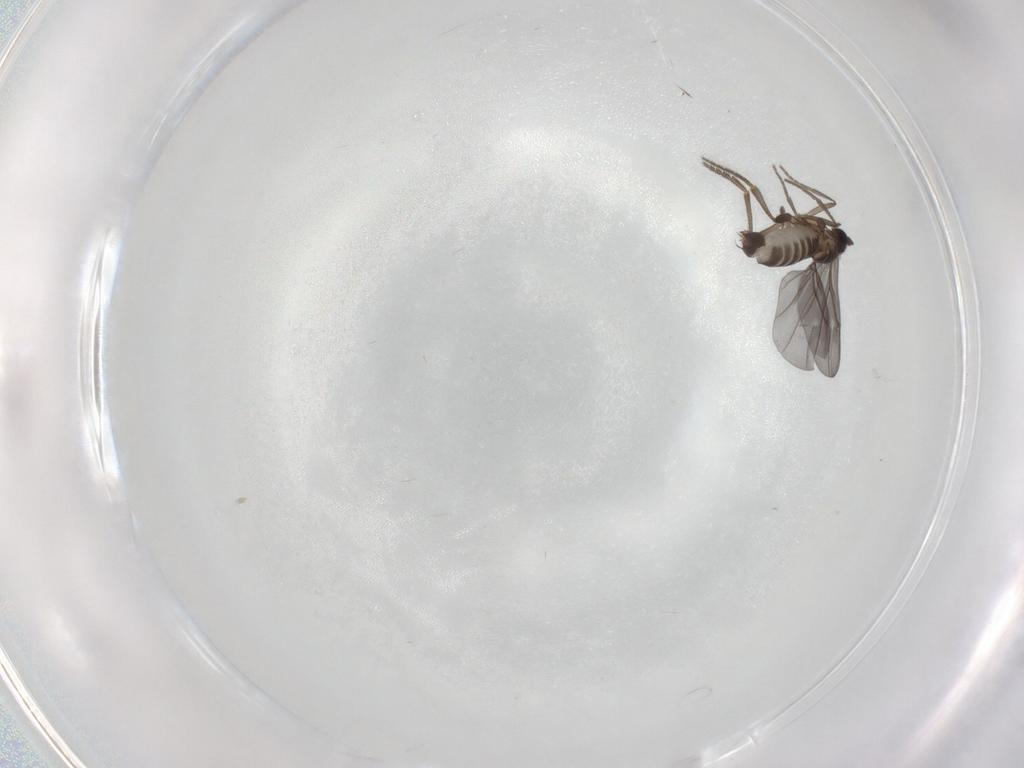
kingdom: Animalia
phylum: Arthropoda
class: Insecta
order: Diptera
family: Phoridae
